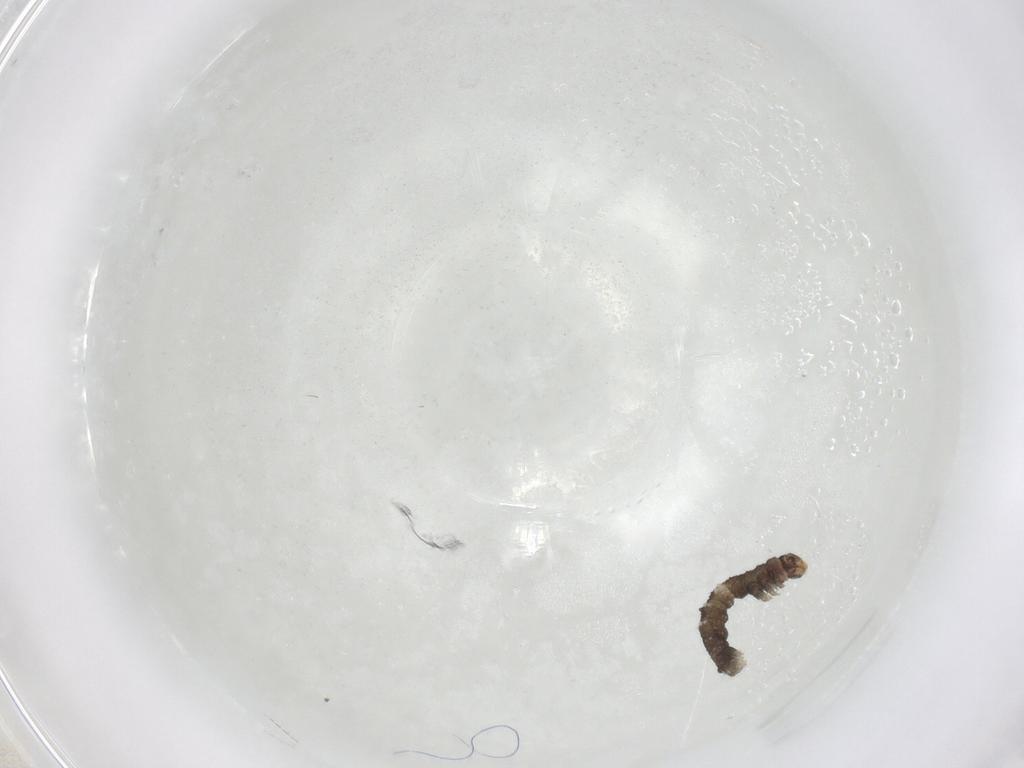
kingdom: Animalia
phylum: Arthropoda
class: Insecta
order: Lepidoptera
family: Geometridae
